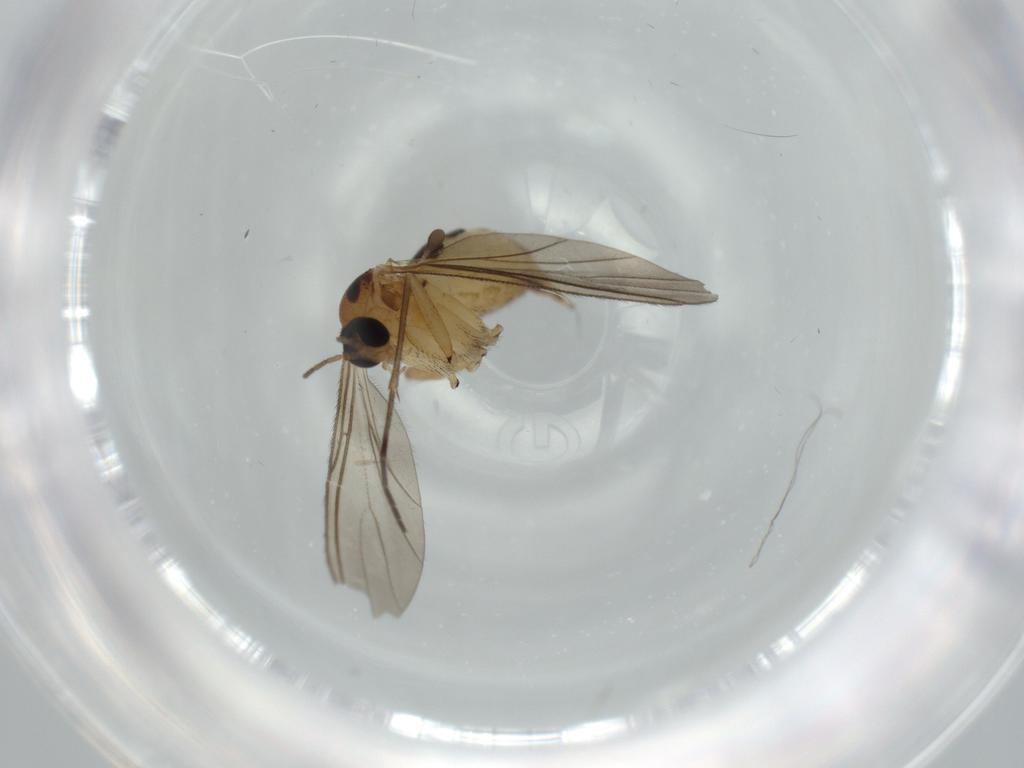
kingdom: Animalia
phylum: Arthropoda
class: Insecta
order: Diptera
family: Sciaridae
